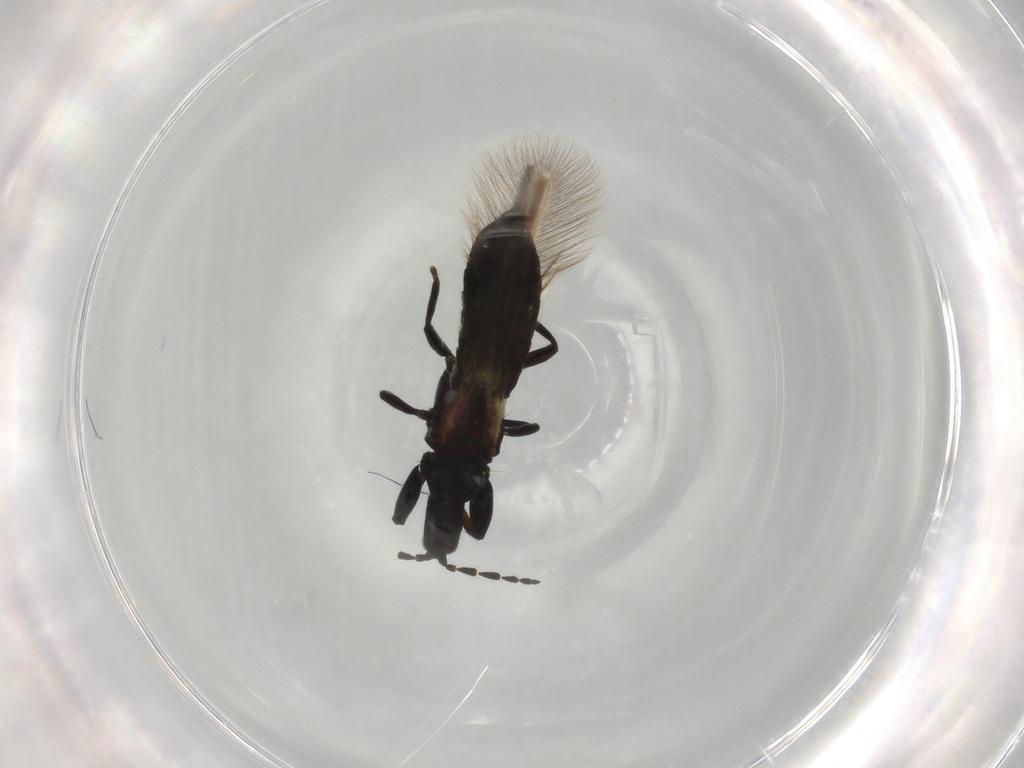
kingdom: Animalia
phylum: Arthropoda
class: Insecta
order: Thysanoptera
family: Phlaeothripidae
